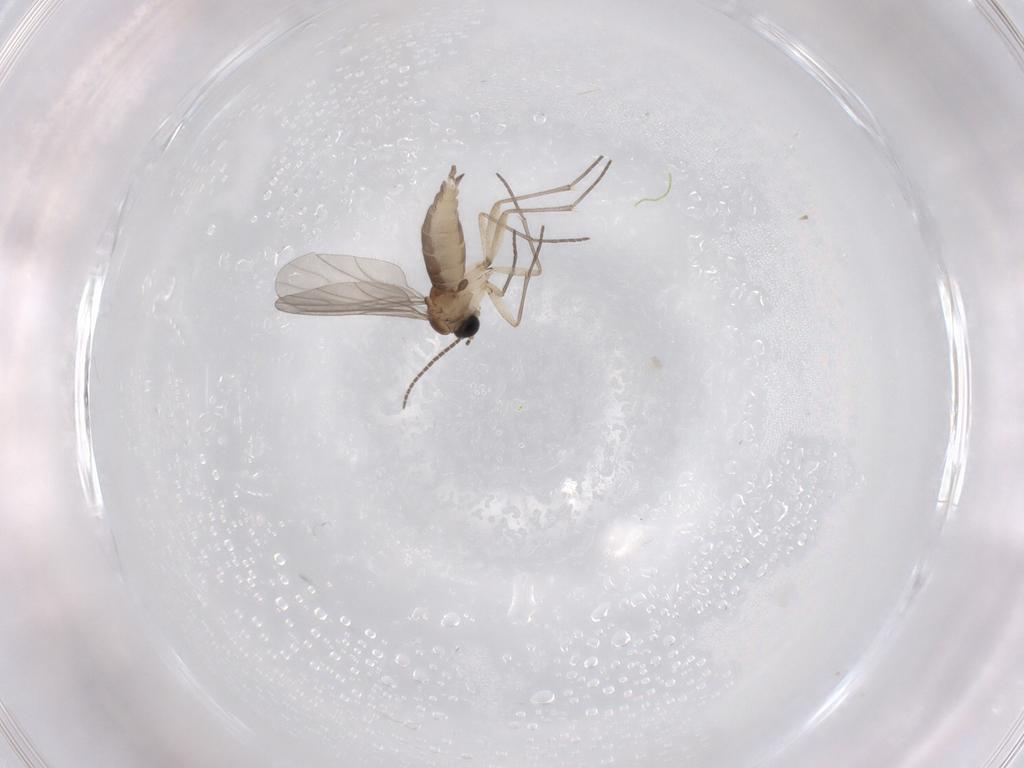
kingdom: Animalia
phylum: Arthropoda
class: Insecta
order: Diptera
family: Sciaridae
